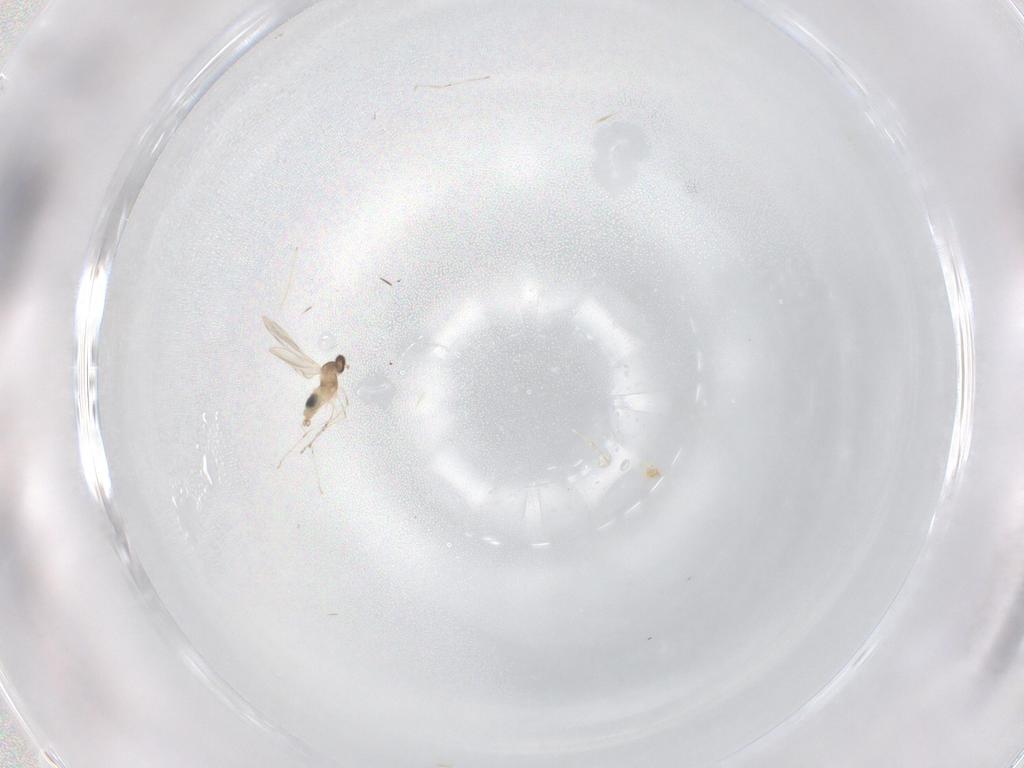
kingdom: Animalia
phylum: Arthropoda
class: Insecta
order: Diptera
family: Cecidomyiidae
